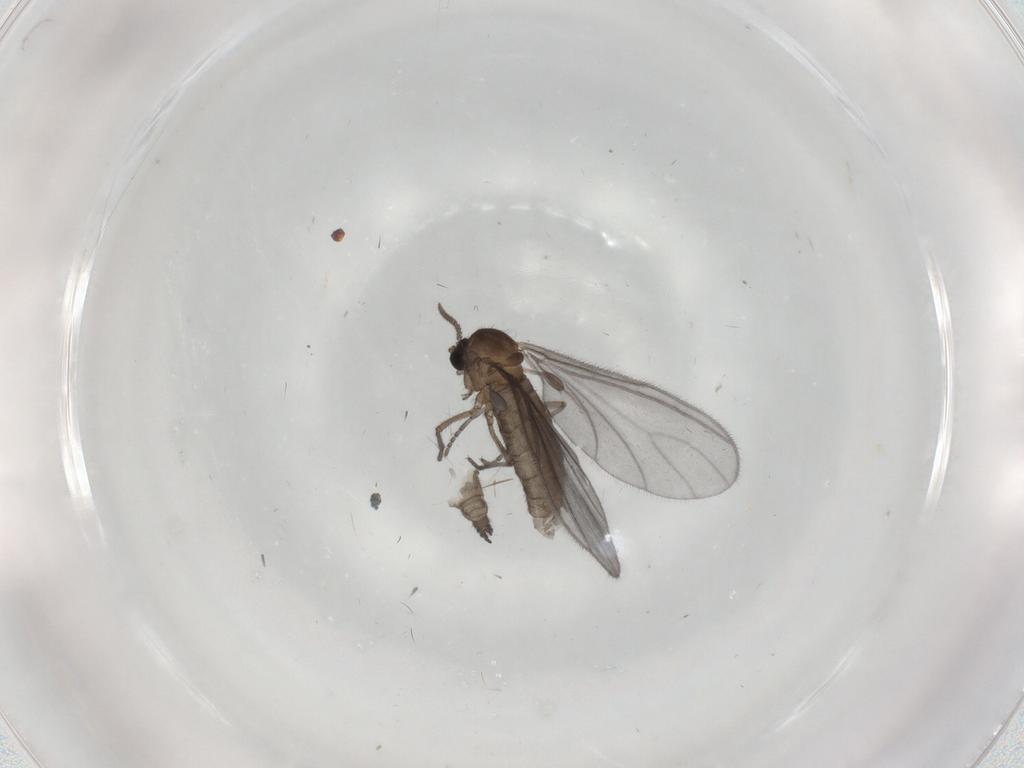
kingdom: Animalia
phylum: Arthropoda
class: Insecta
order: Diptera
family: Sciaridae
